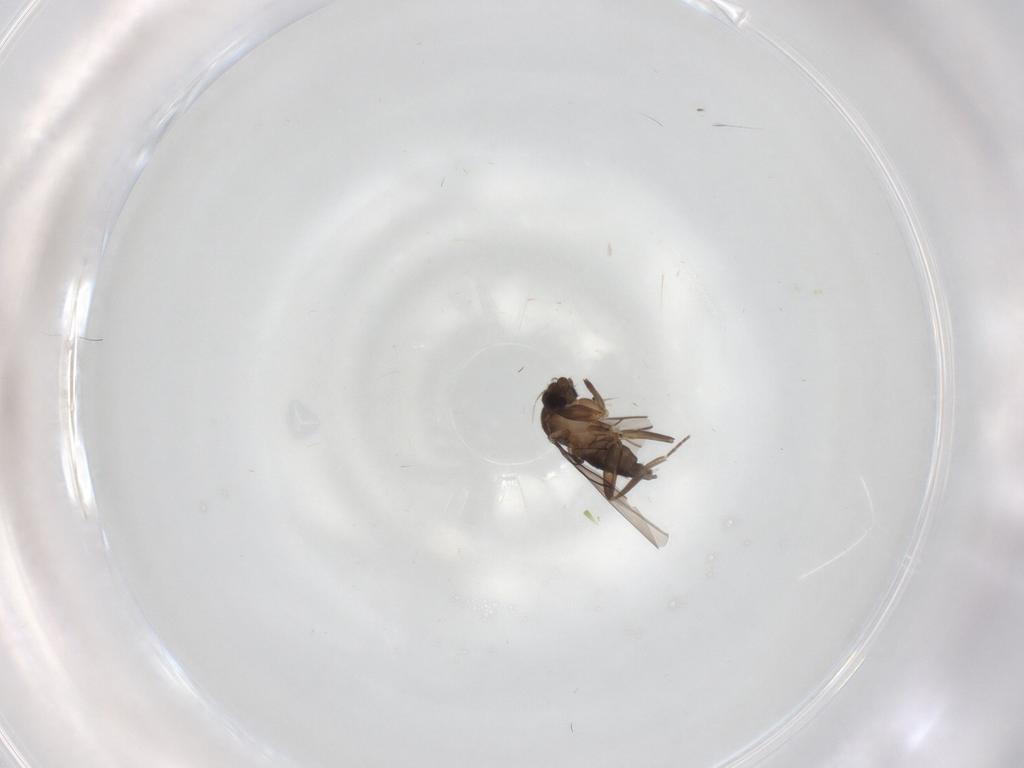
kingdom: Animalia
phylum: Arthropoda
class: Insecta
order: Diptera
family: Phoridae
